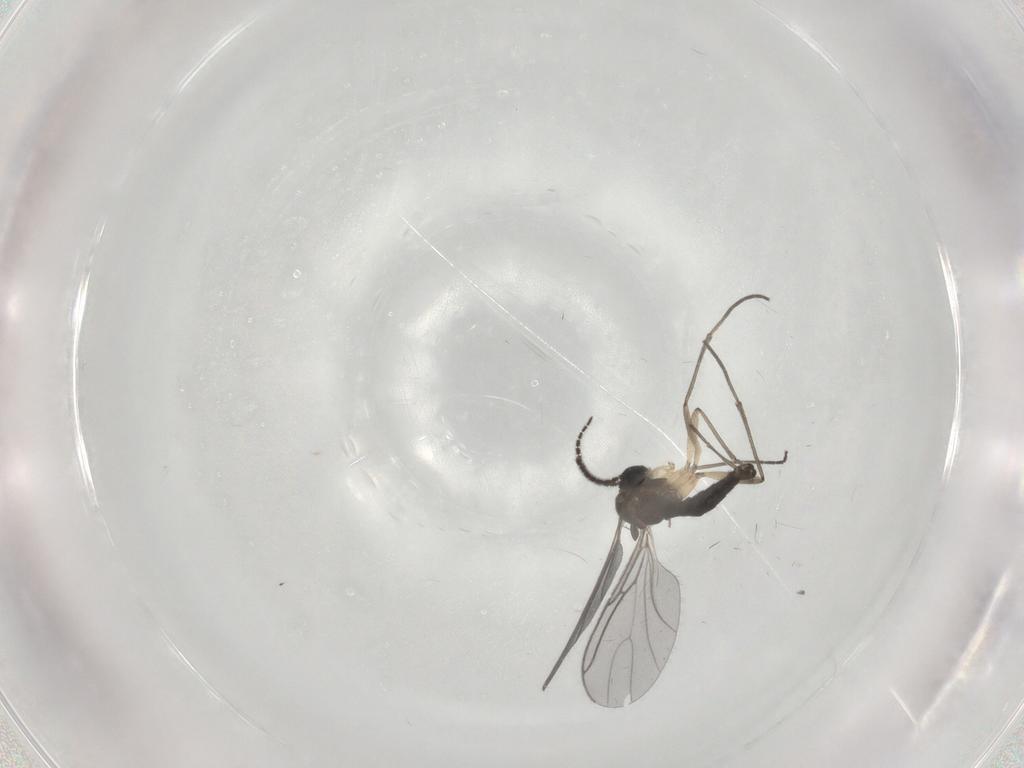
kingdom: Animalia
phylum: Arthropoda
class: Insecta
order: Diptera
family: Sciaridae
